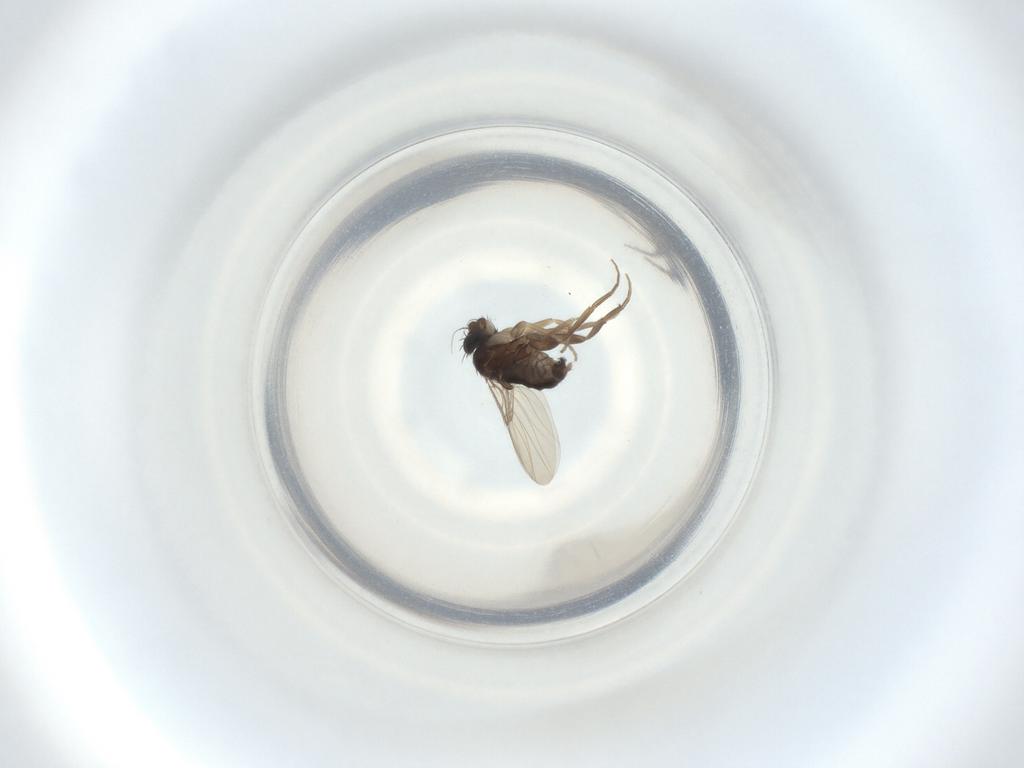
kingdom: Animalia
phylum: Arthropoda
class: Insecta
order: Diptera
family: Phoridae
